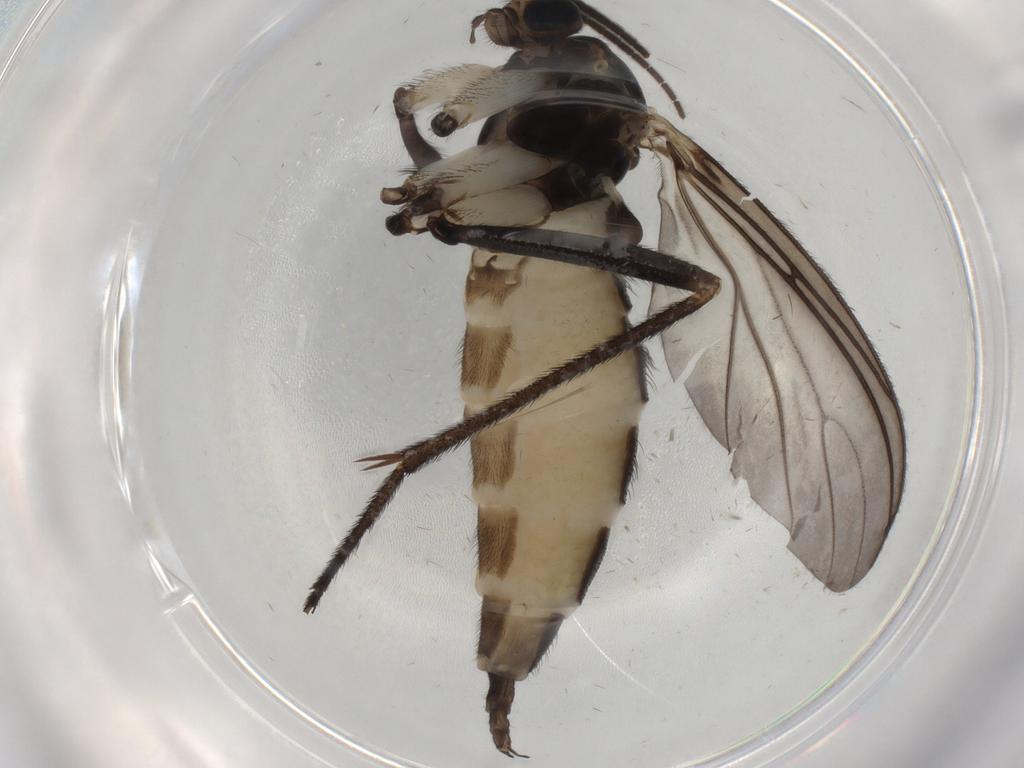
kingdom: Animalia
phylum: Arthropoda
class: Insecta
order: Diptera
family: Sciaridae
